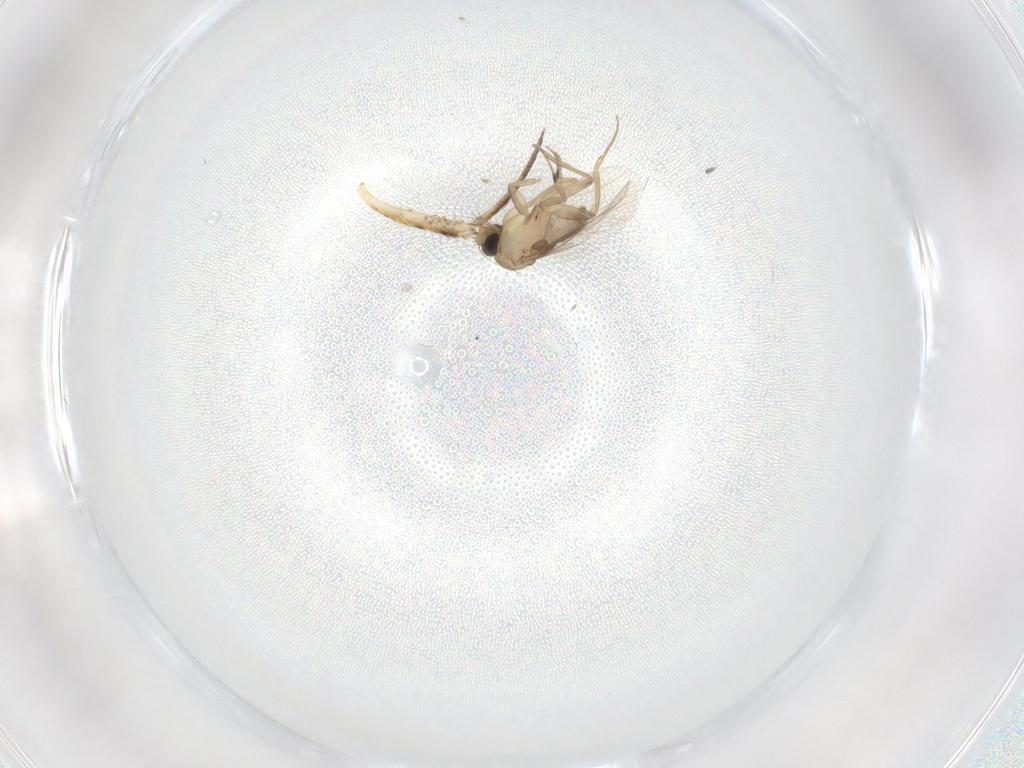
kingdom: Animalia
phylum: Arthropoda
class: Insecta
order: Diptera
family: Phoridae
